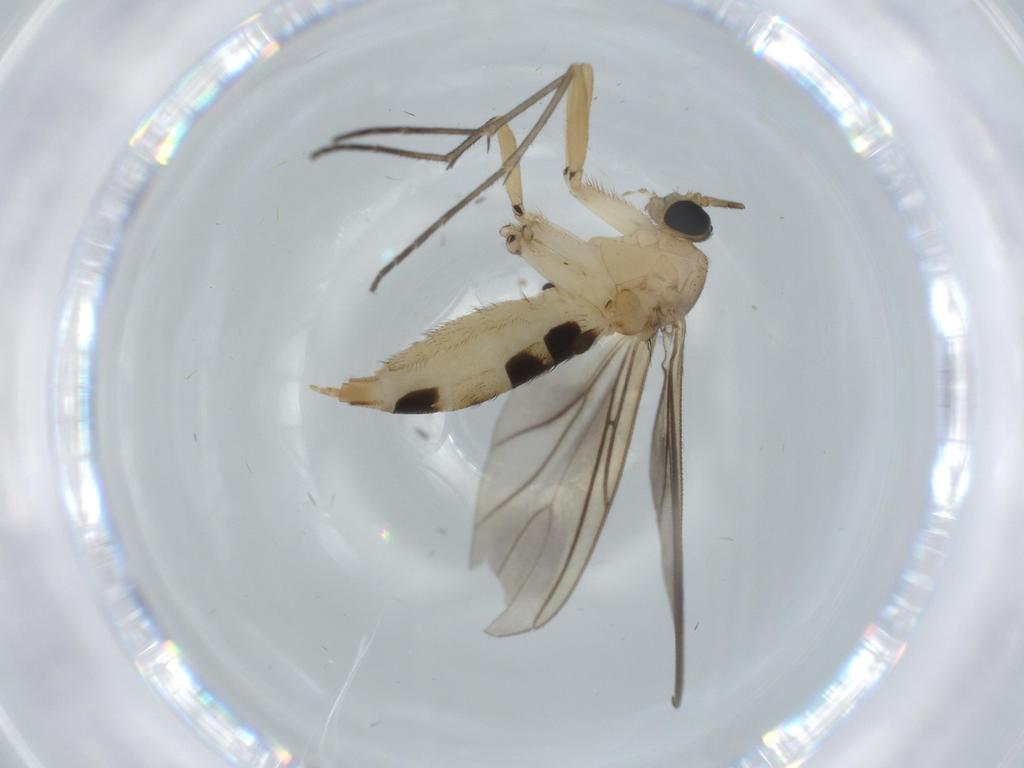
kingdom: Animalia
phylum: Arthropoda
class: Insecta
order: Diptera
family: Sciaridae
